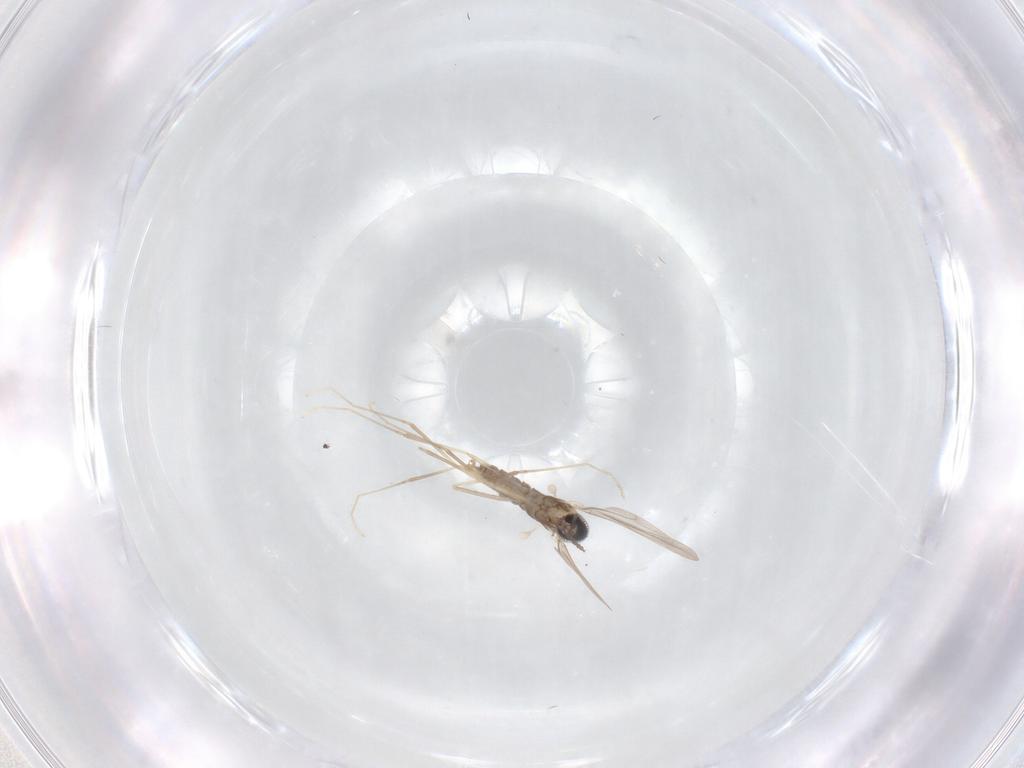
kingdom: Animalia
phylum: Arthropoda
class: Insecta
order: Diptera
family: Cecidomyiidae
